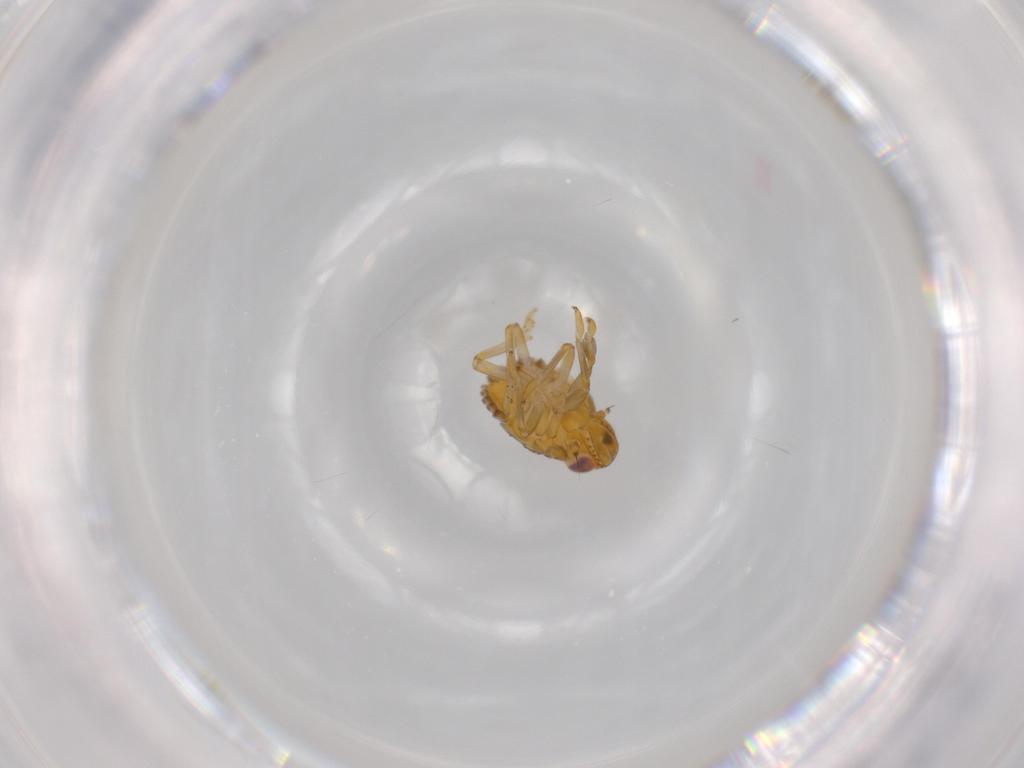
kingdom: Animalia
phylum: Arthropoda
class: Insecta
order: Hemiptera
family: Issidae
